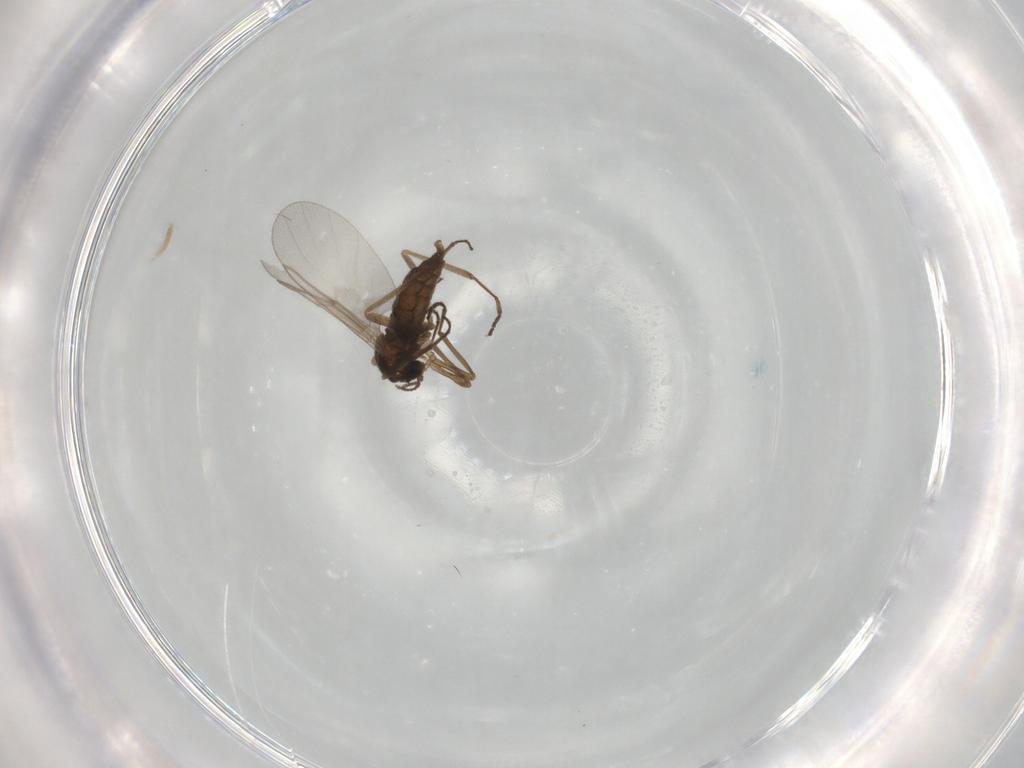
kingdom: Animalia
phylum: Arthropoda
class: Insecta
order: Diptera
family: Cecidomyiidae
